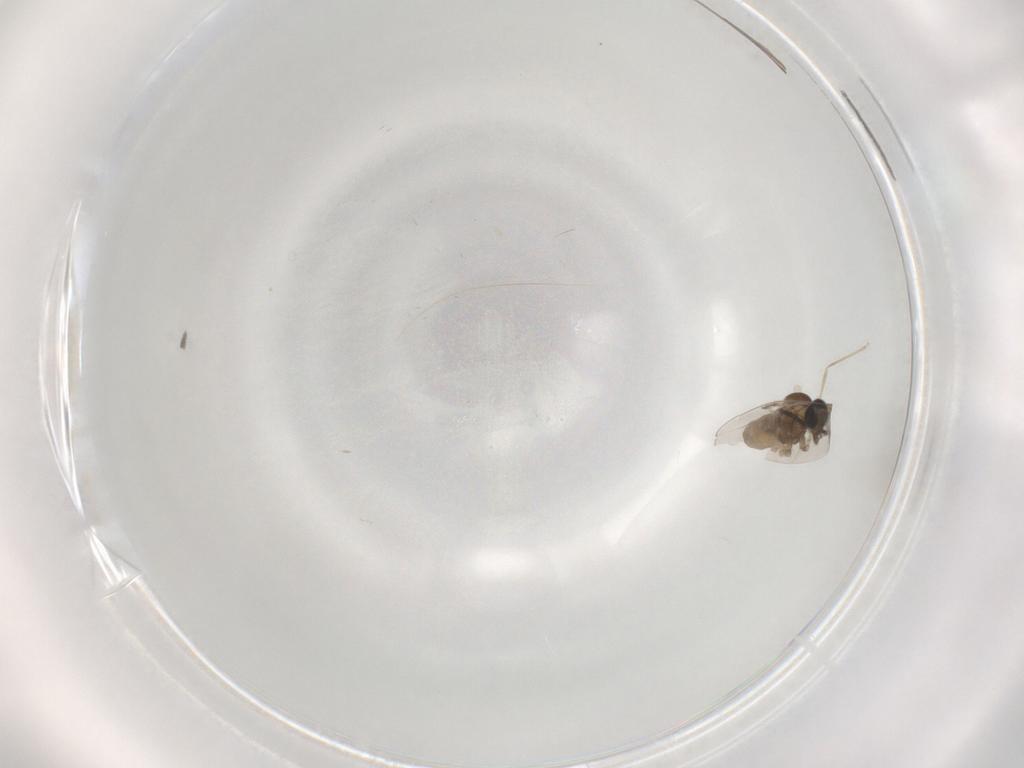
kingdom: Animalia
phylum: Arthropoda
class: Insecta
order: Diptera
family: Cecidomyiidae
